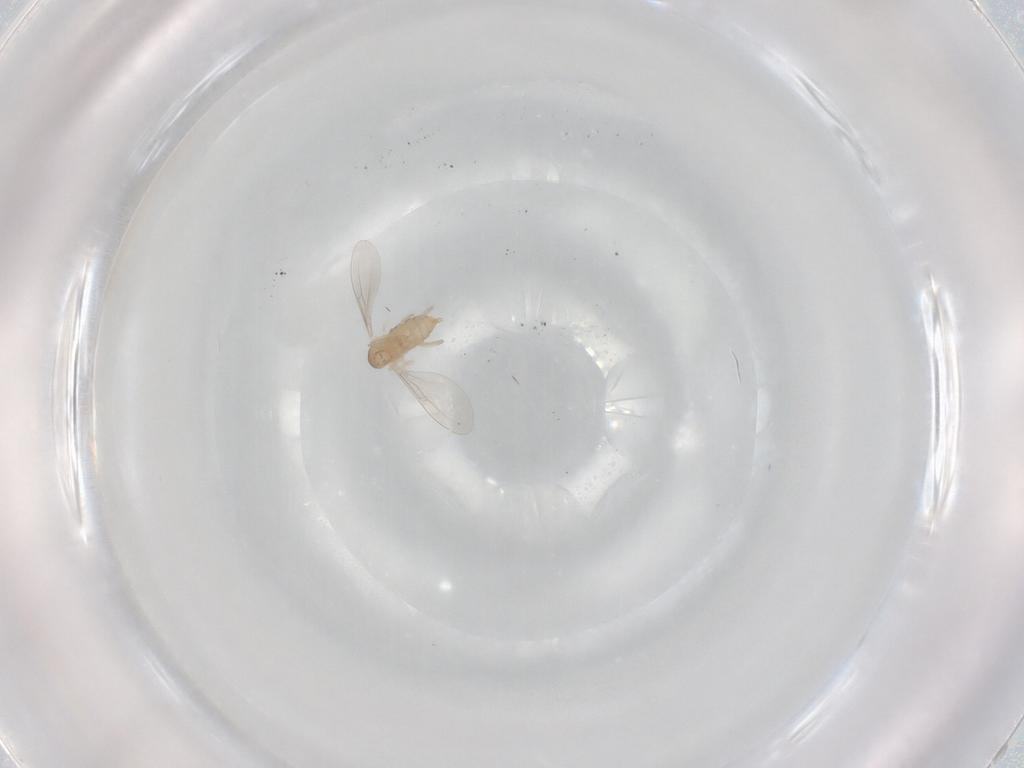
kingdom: Animalia
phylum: Arthropoda
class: Insecta
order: Diptera
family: Cecidomyiidae
